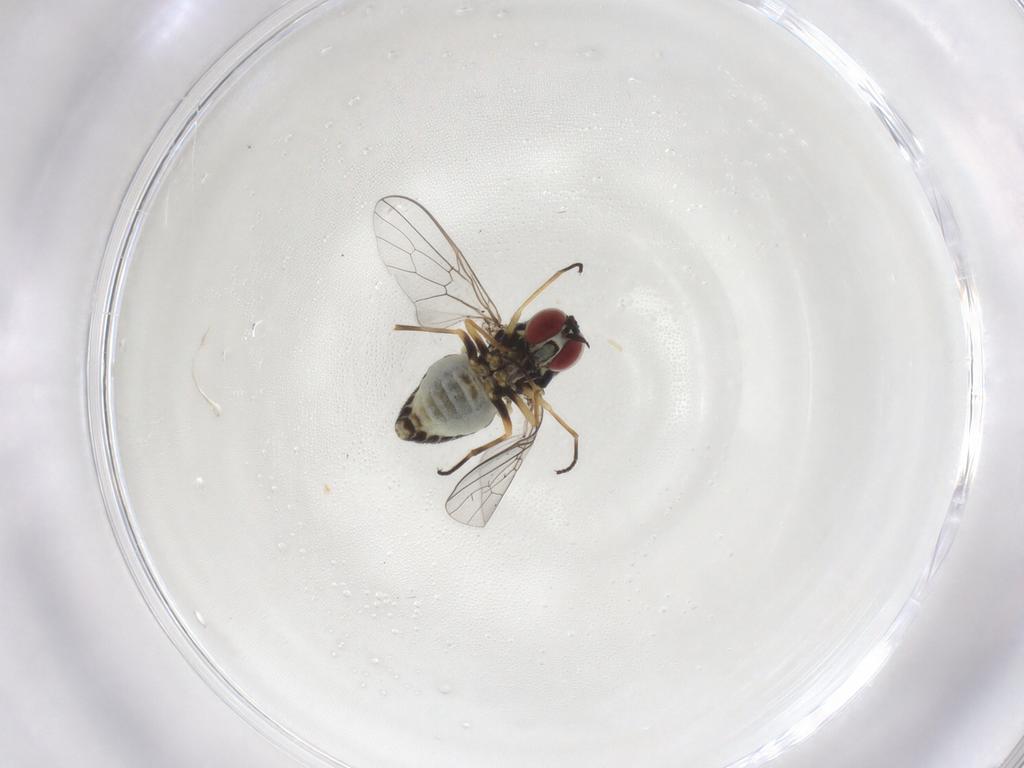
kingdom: Animalia
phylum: Arthropoda
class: Insecta
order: Diptera
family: Bombyliidae
